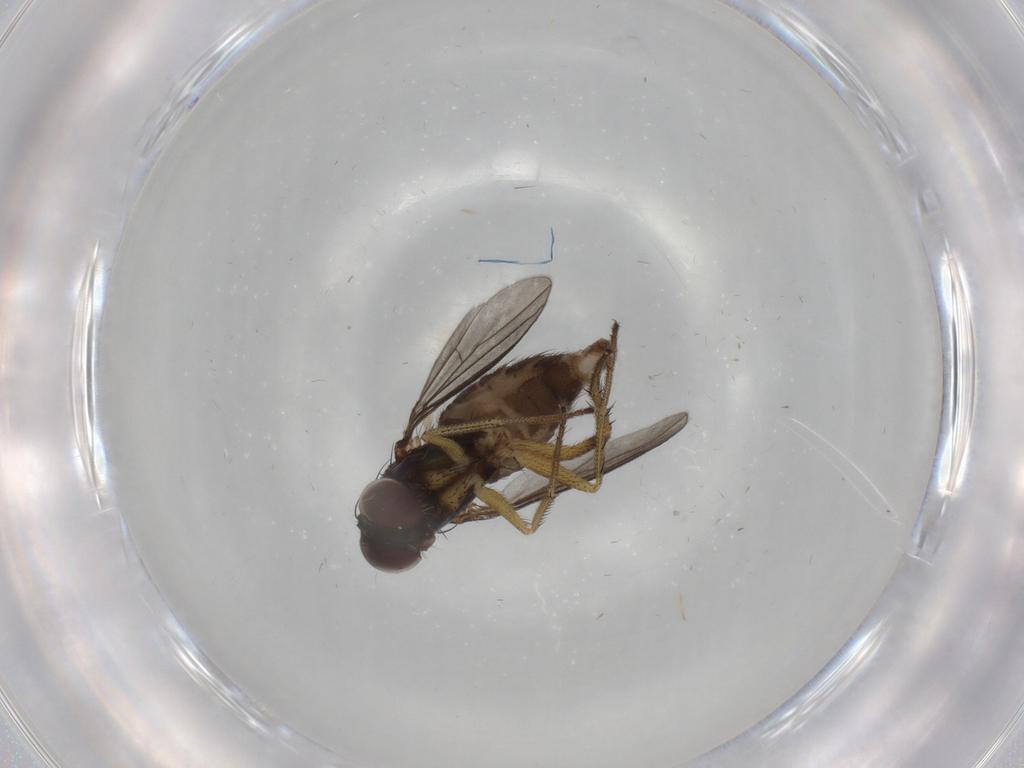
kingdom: Animalia
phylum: Arthropoda
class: Insecta
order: Diptera
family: Dolichopodidae
